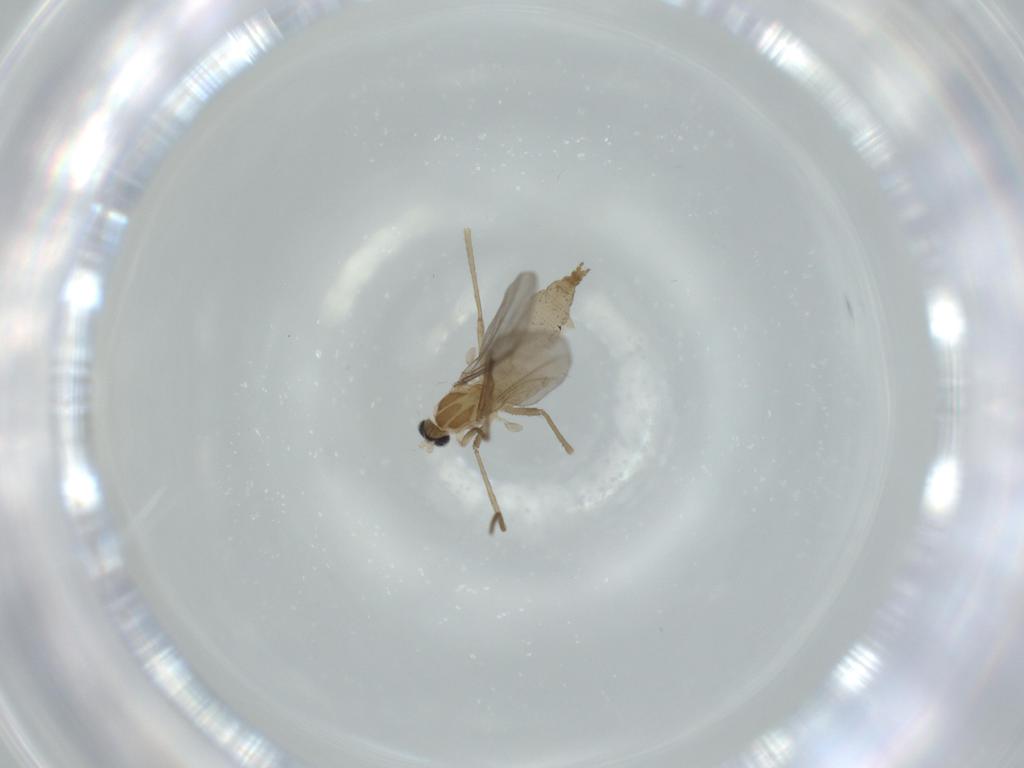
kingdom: Animalia
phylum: Arthropoda
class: Insecta
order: Diptera
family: Cecidomyiidae
